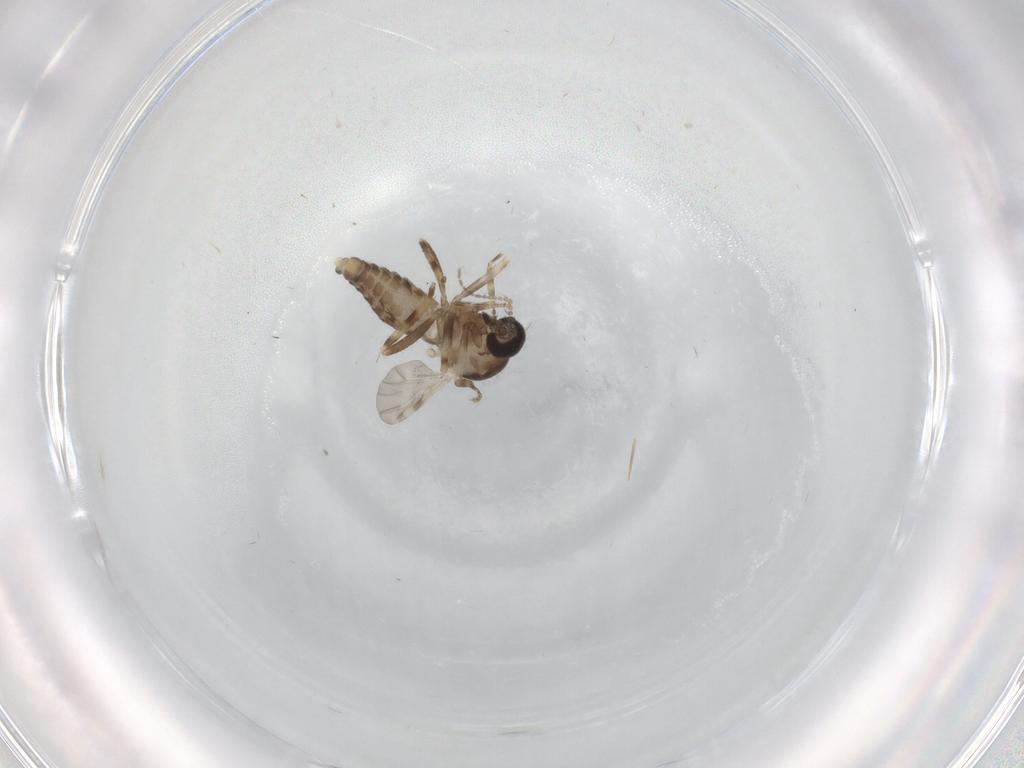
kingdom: Animalia
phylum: Arthropoda
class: Insecta
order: Diptera
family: Ceratopogonidae
